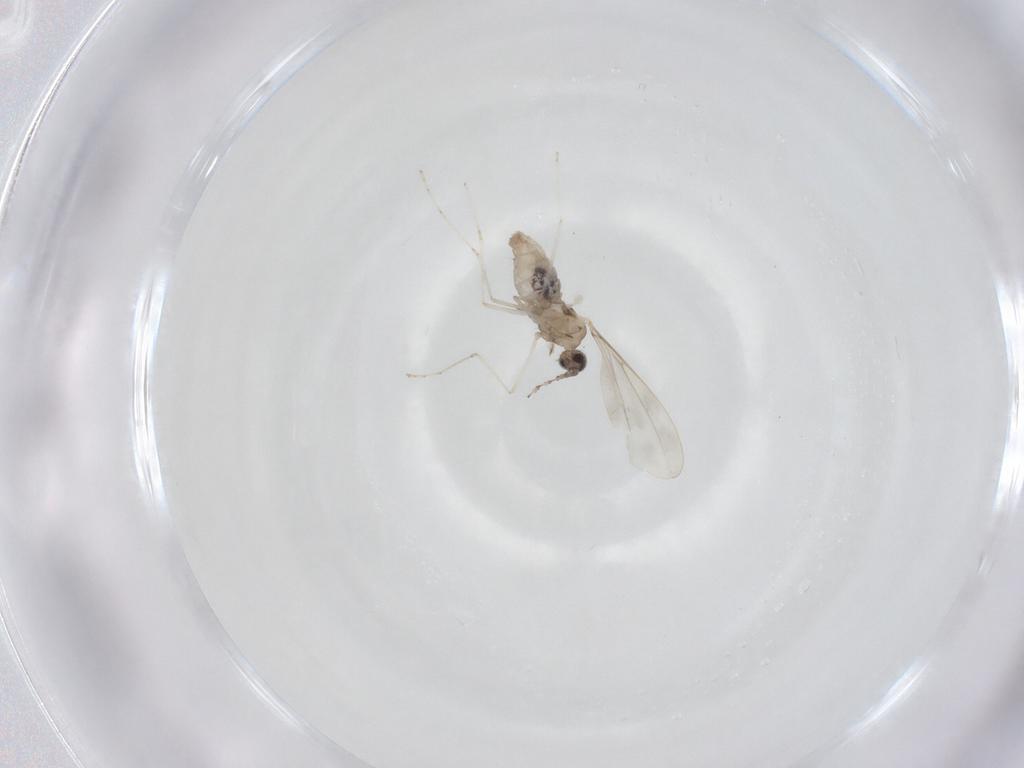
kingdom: Animalia
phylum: Arthropoda
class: Insecta
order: Diptera
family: Cecidomyiidae
